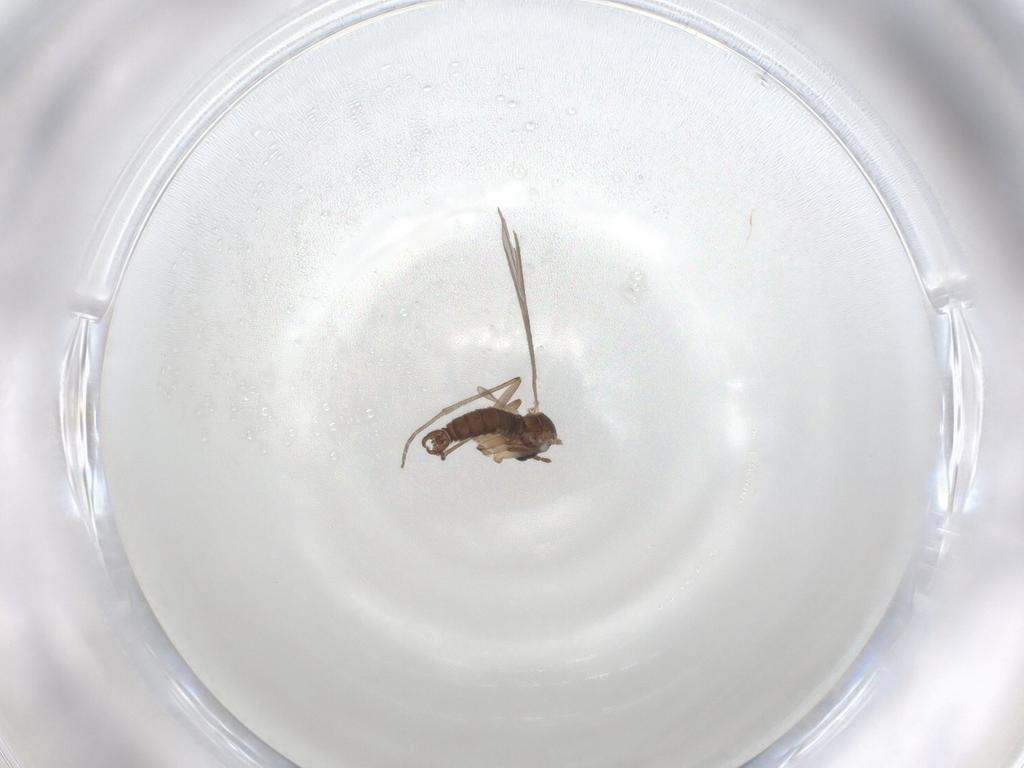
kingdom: Animalia
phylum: Arthropoda
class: Insecta
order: Diptera
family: Sciaridae
